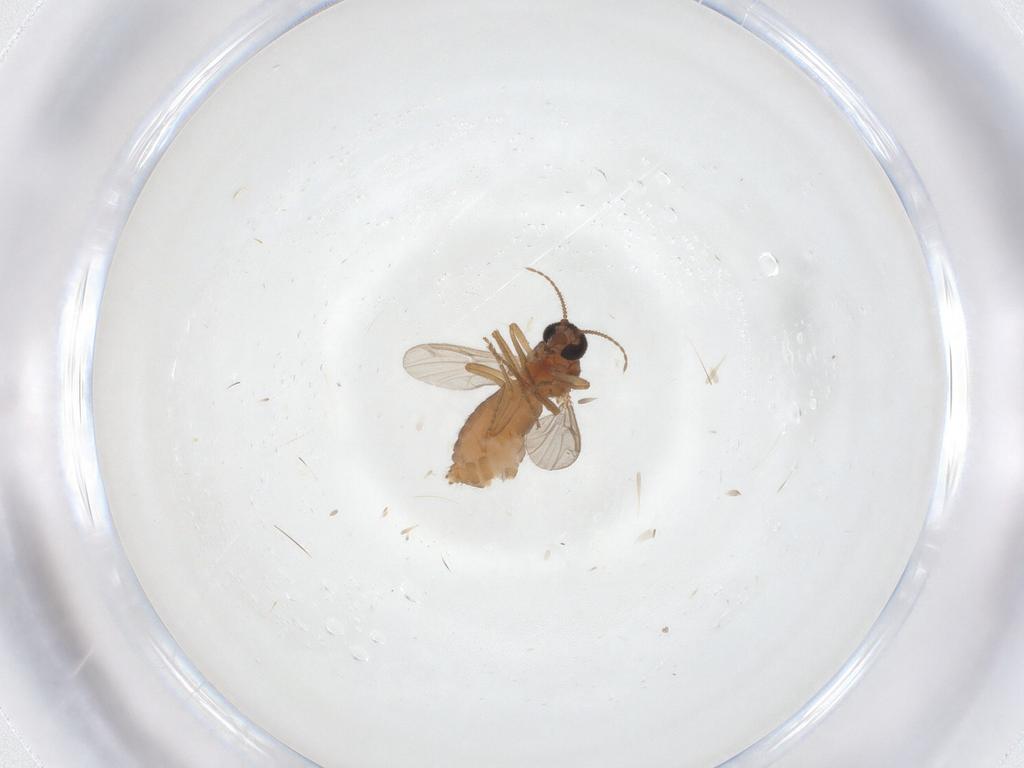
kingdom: Animalia
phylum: Arthropoda
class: Insecta
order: Diptera
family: Ceratopogonidae
